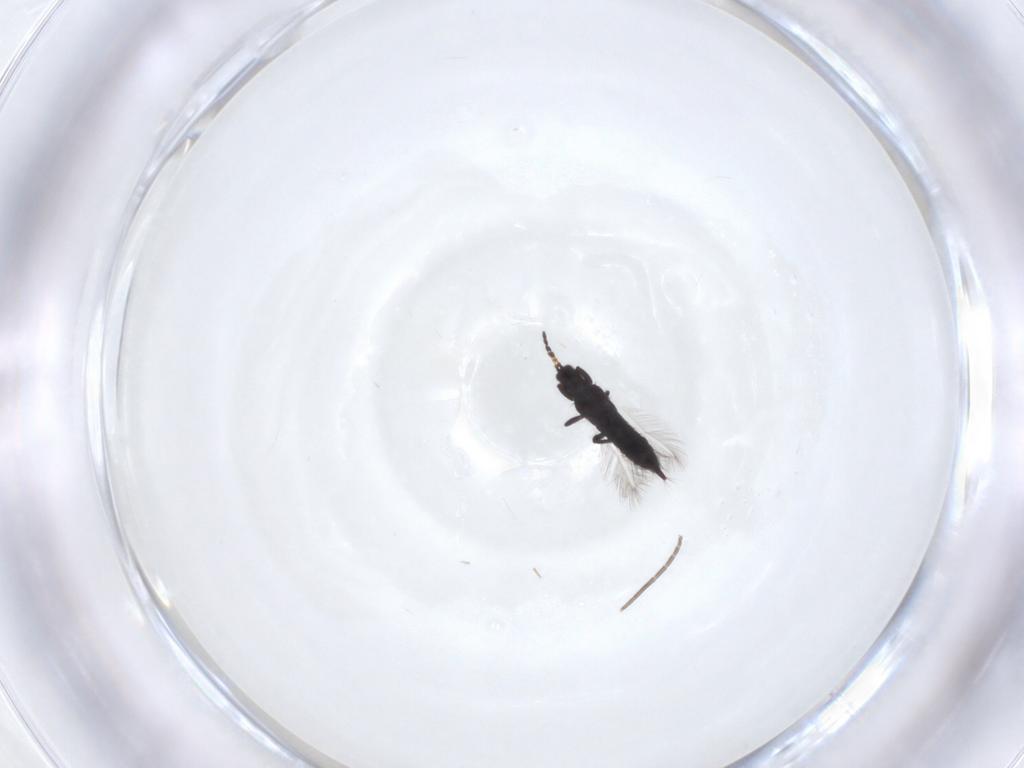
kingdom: Animalia
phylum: Arthropoda
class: Insecta
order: Thysanoptera
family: Phlaeothripidae
